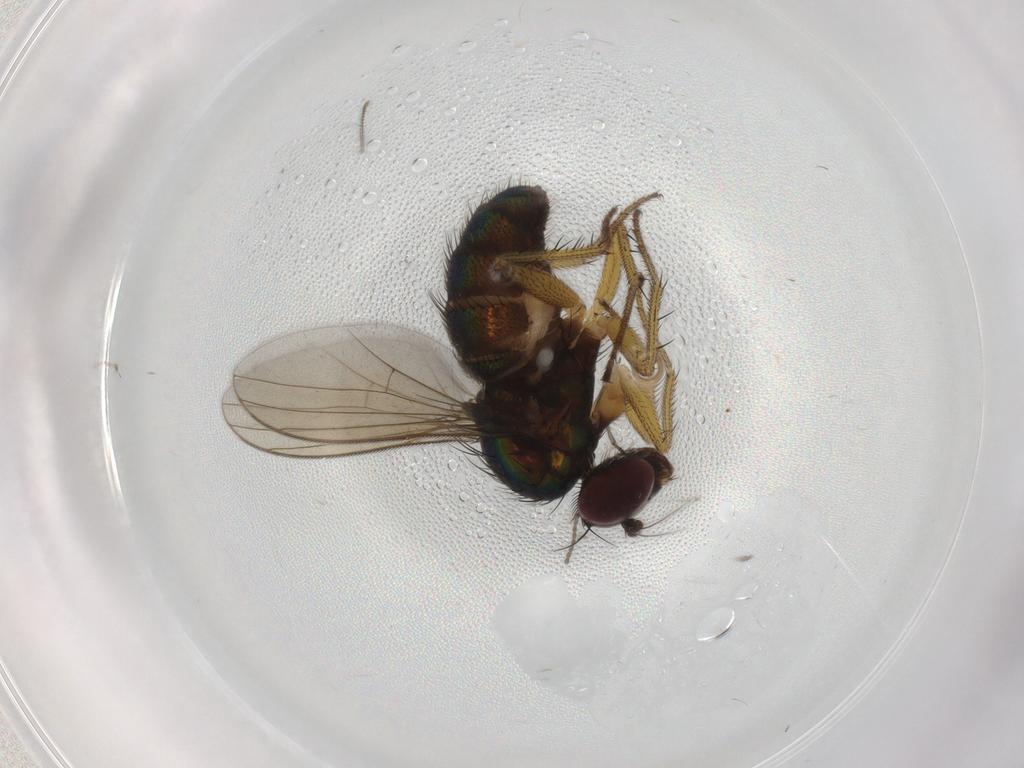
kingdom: Animalia
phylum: Arthropoda
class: Insecta
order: Diptera
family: Dolichopodidae
